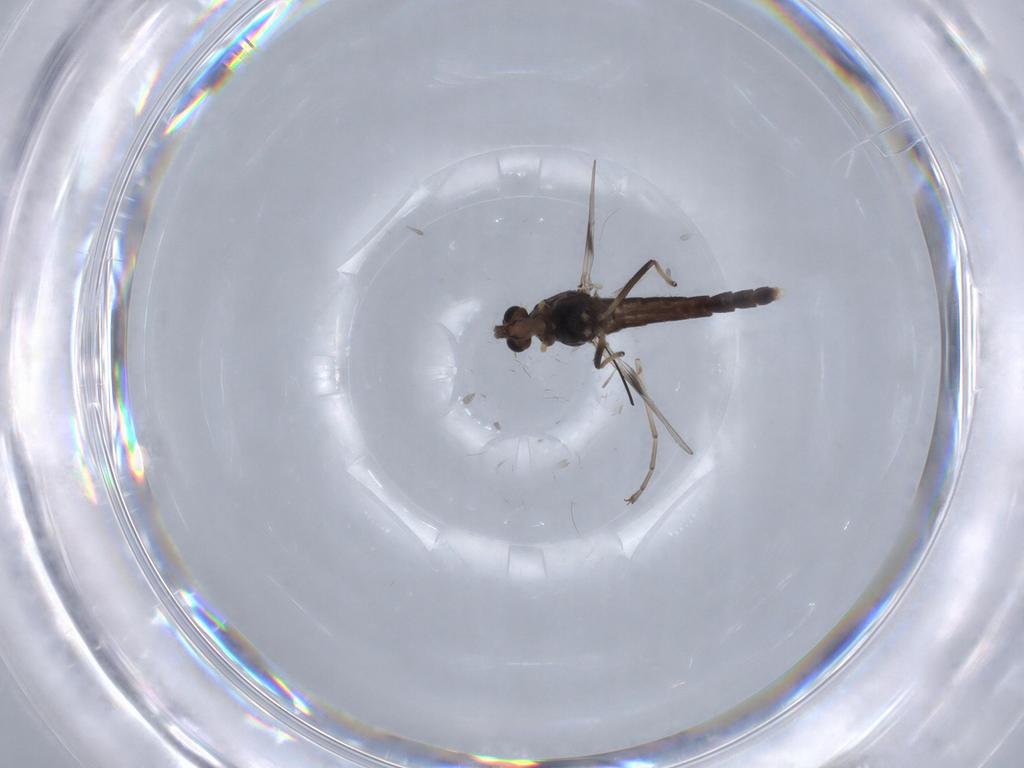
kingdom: Animalia
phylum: Arthropoda
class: Insecta
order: Diptera
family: Chironomidae
